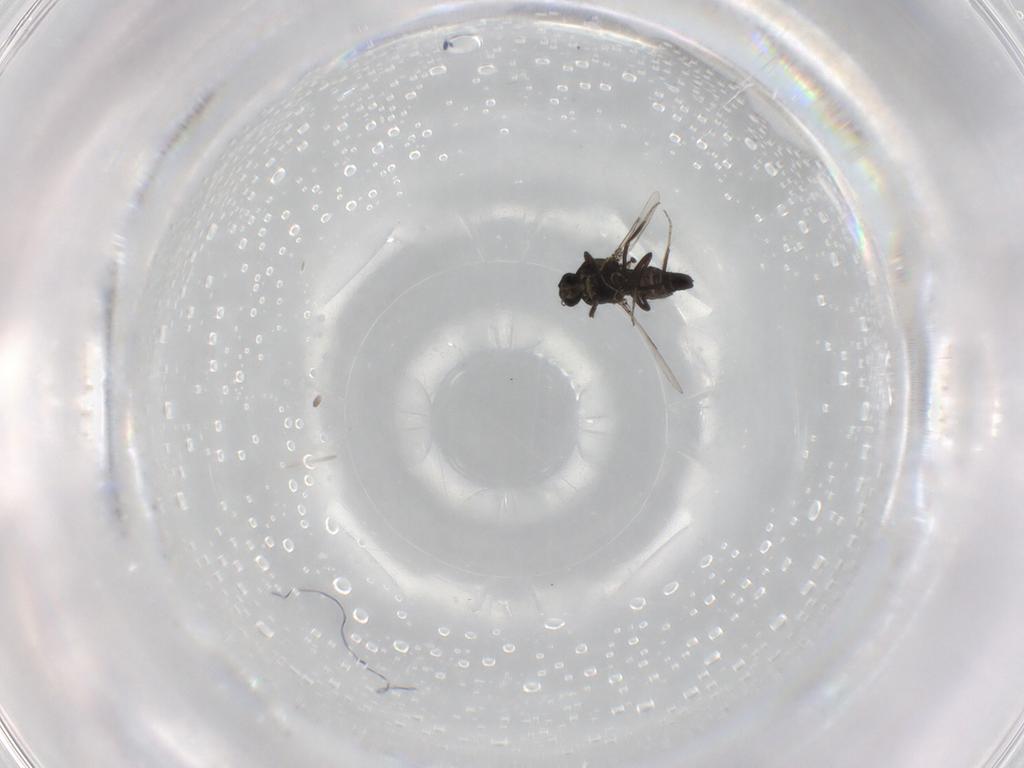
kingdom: Animalia
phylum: Arthropoda
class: Insecta
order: Diptera
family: Ceratopogonidae
